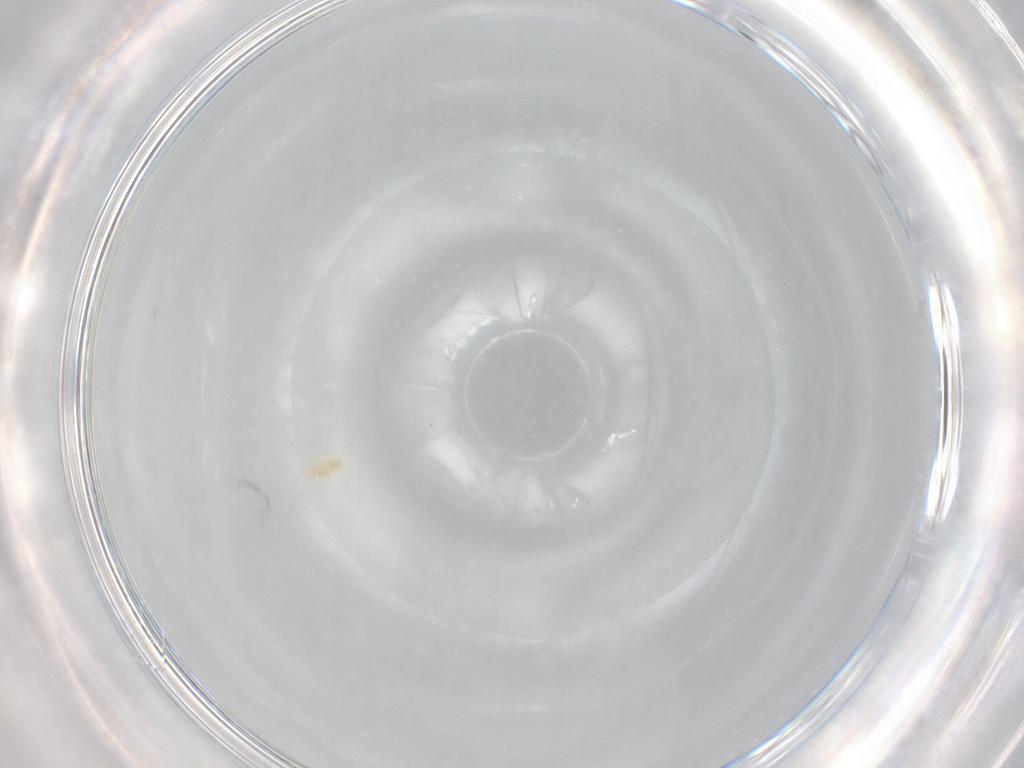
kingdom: Animalia
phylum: Arthropoda
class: Arachnida
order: Trombidiformes
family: Eupodidae
